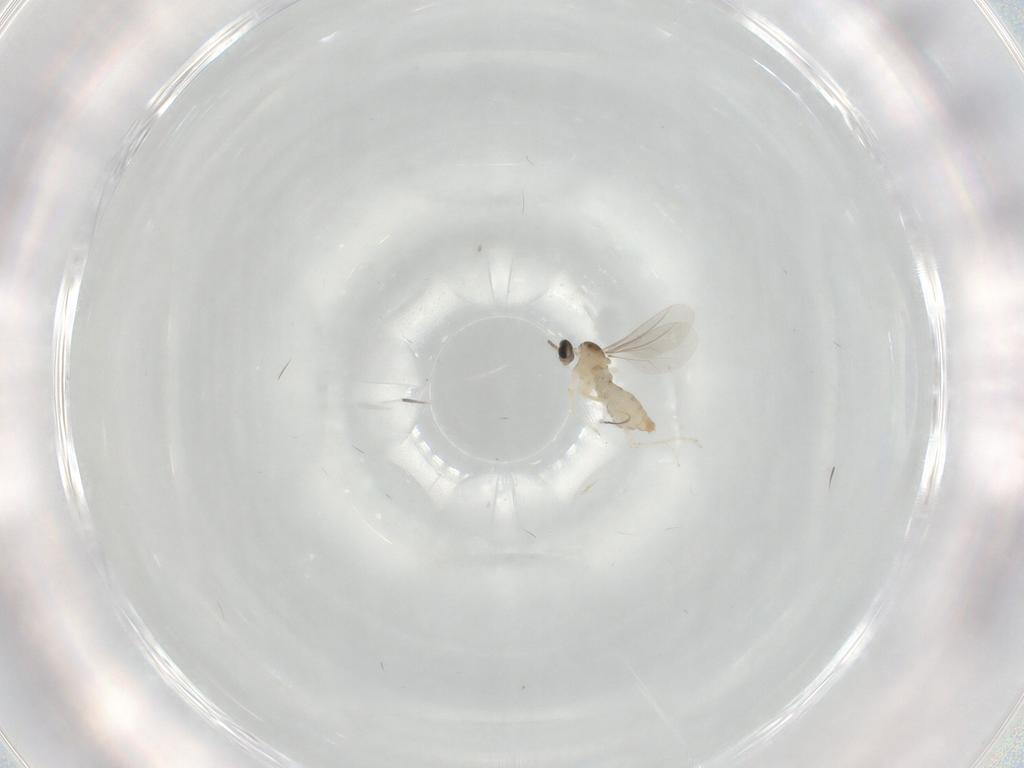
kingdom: Animalia
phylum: Arthropoda
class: Insecta
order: Diptera
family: Cecidomyiidae
